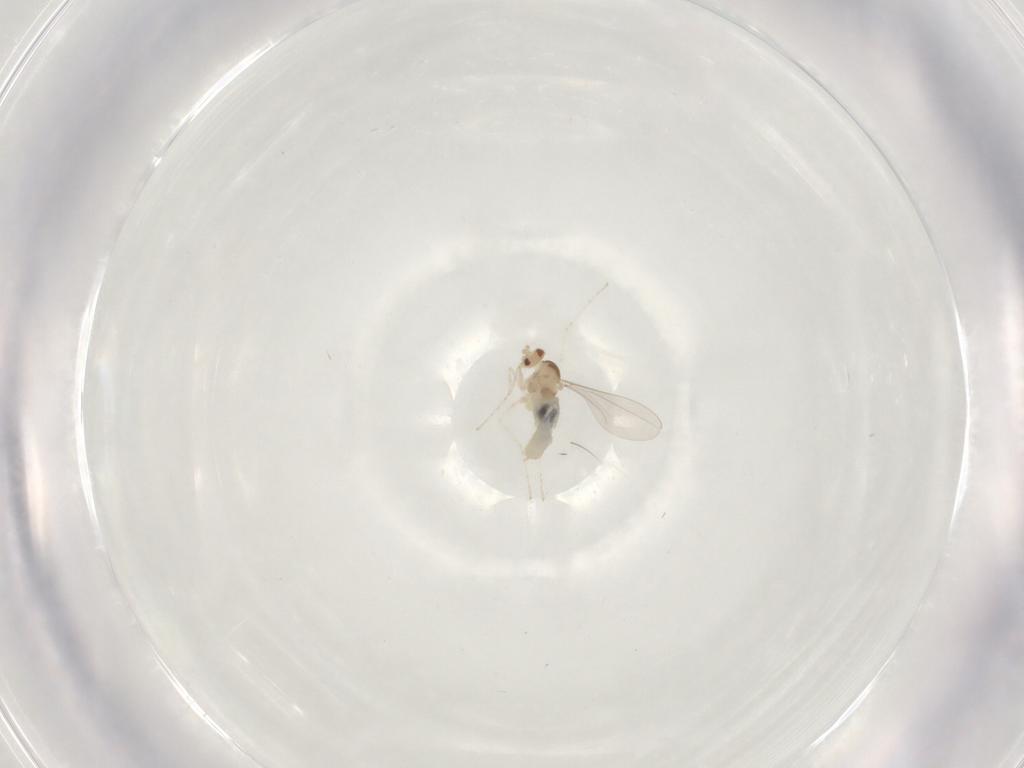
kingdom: Animalia
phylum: Arthropoda
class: Insecta
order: Diptera
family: Cecidomyiidae
